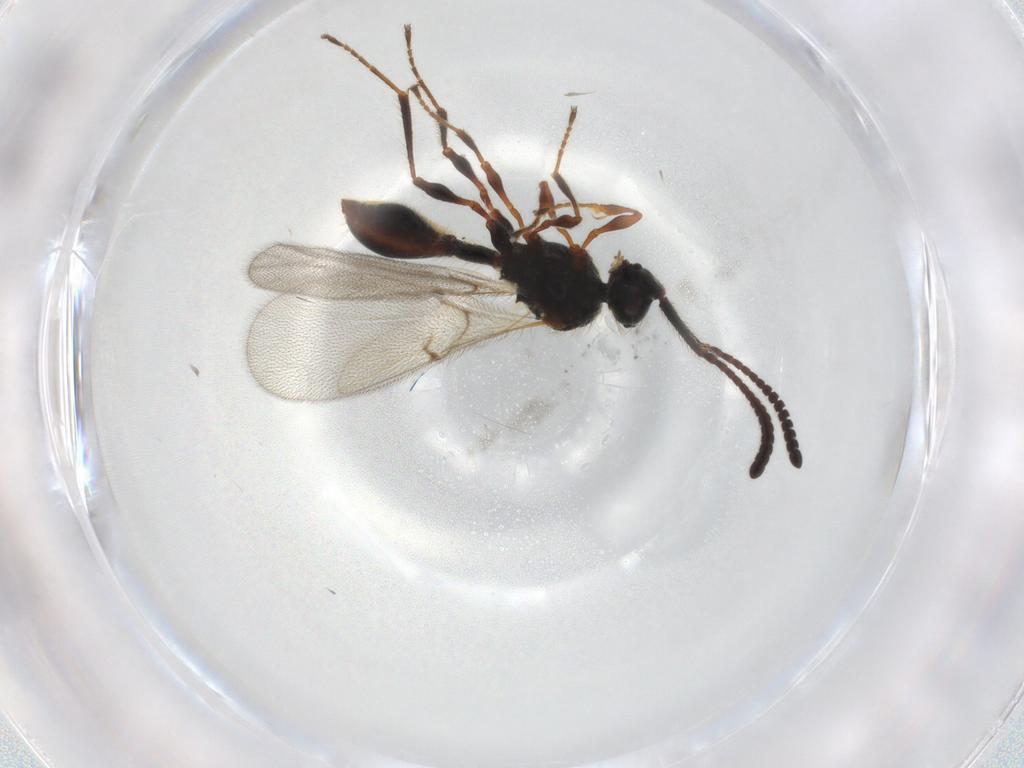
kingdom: Animalia
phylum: Arthropoda
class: Insecta
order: Hymenoptera
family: Diapriidae
